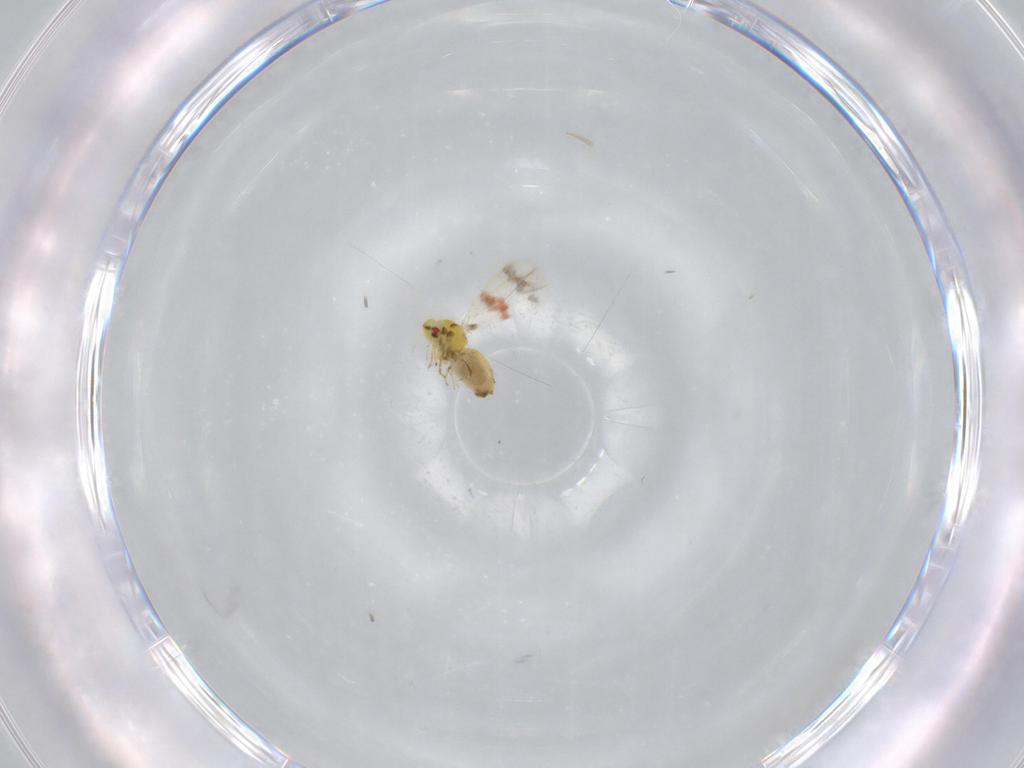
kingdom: Animalia
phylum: Arthropoda
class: Insecta
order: Hemiptera
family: Aleyrodidae
